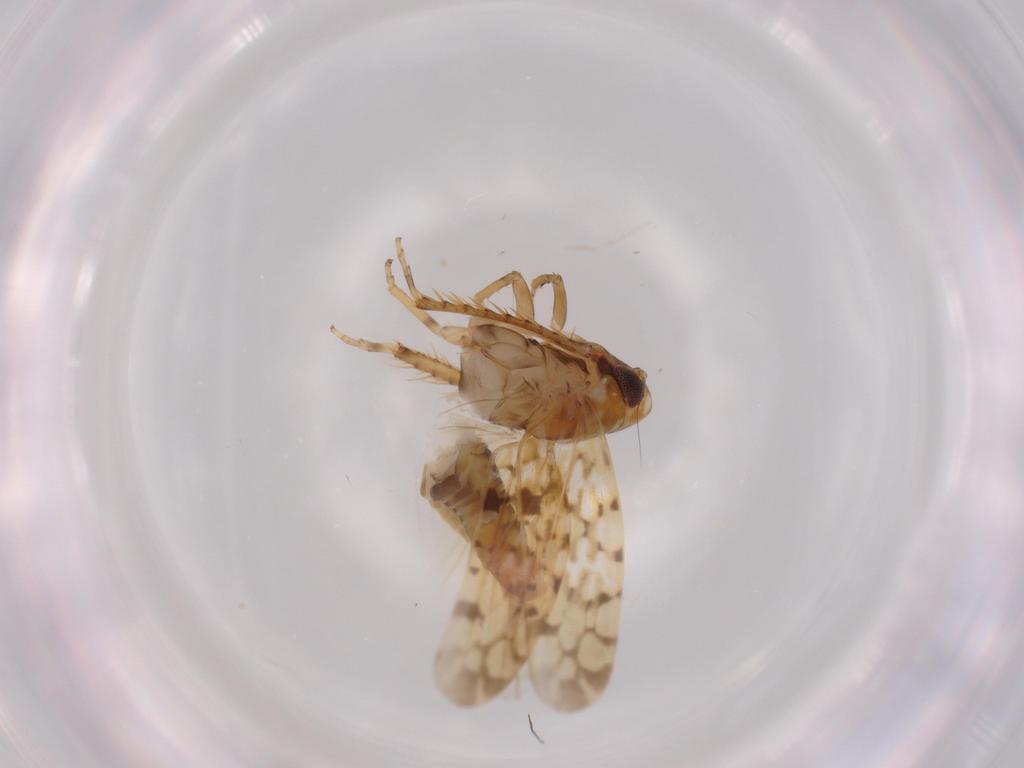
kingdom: Animalia
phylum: Arthropoda
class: Insecta
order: Hemiptera
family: Cicadellidae
